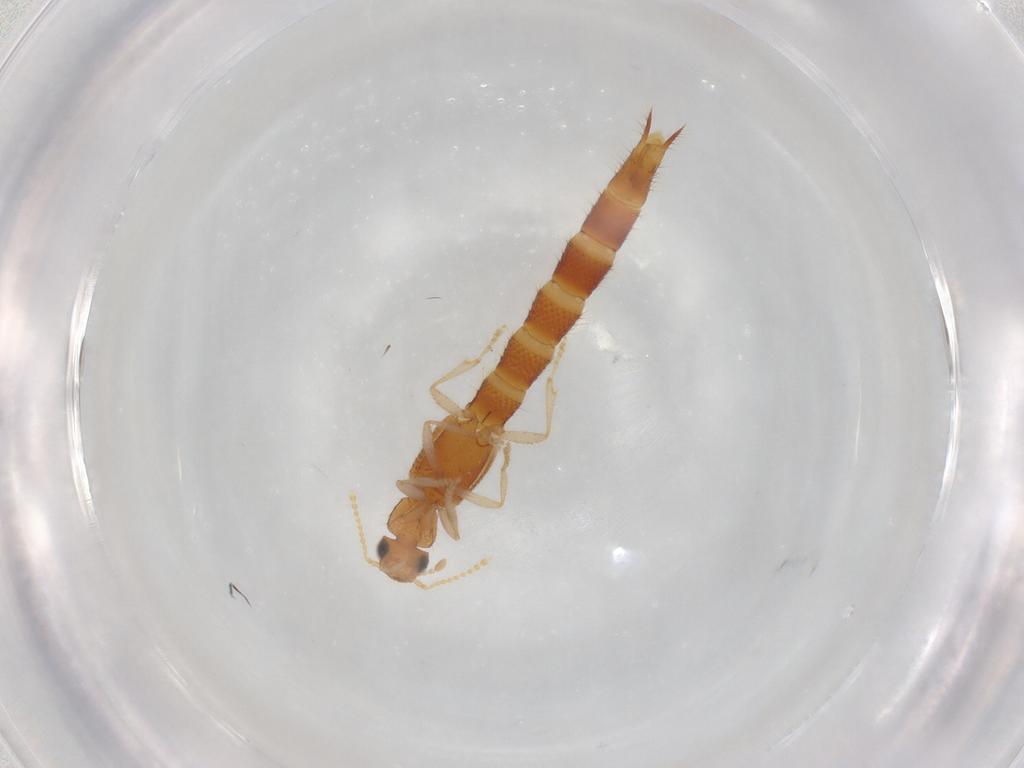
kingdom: Animalia
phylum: Arthropoda
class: Insecta
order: Coleoptera
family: Staphylinidae
